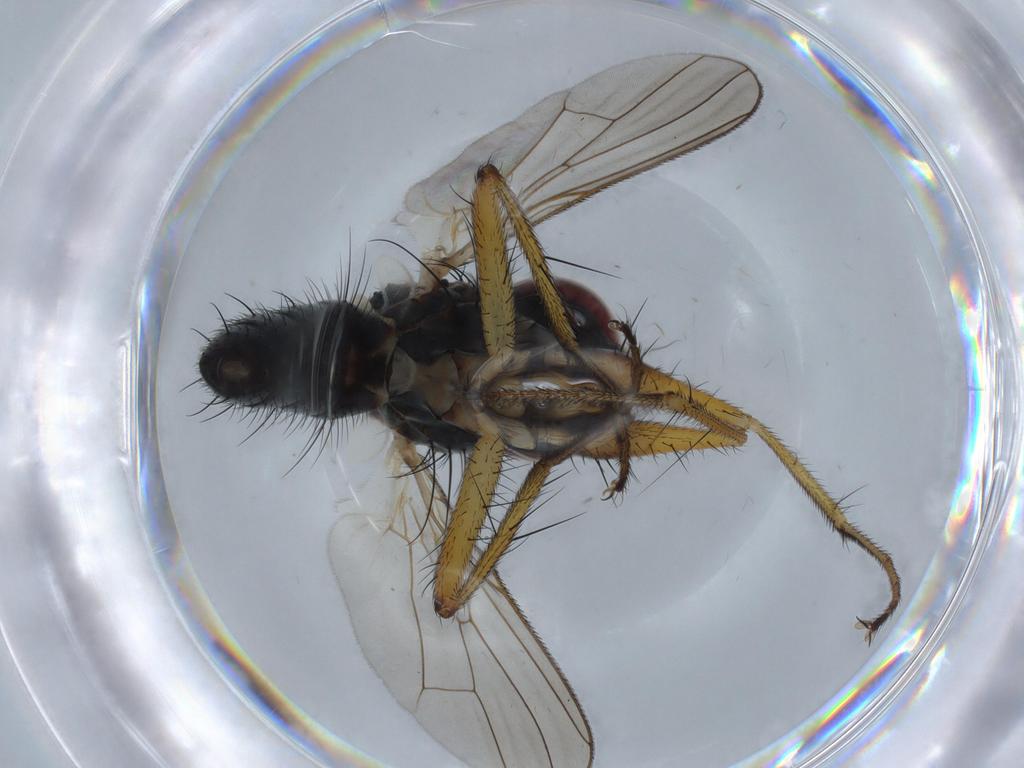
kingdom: Animalia
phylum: Arthropoda
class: Insecta
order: Diptera
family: Muscidae
